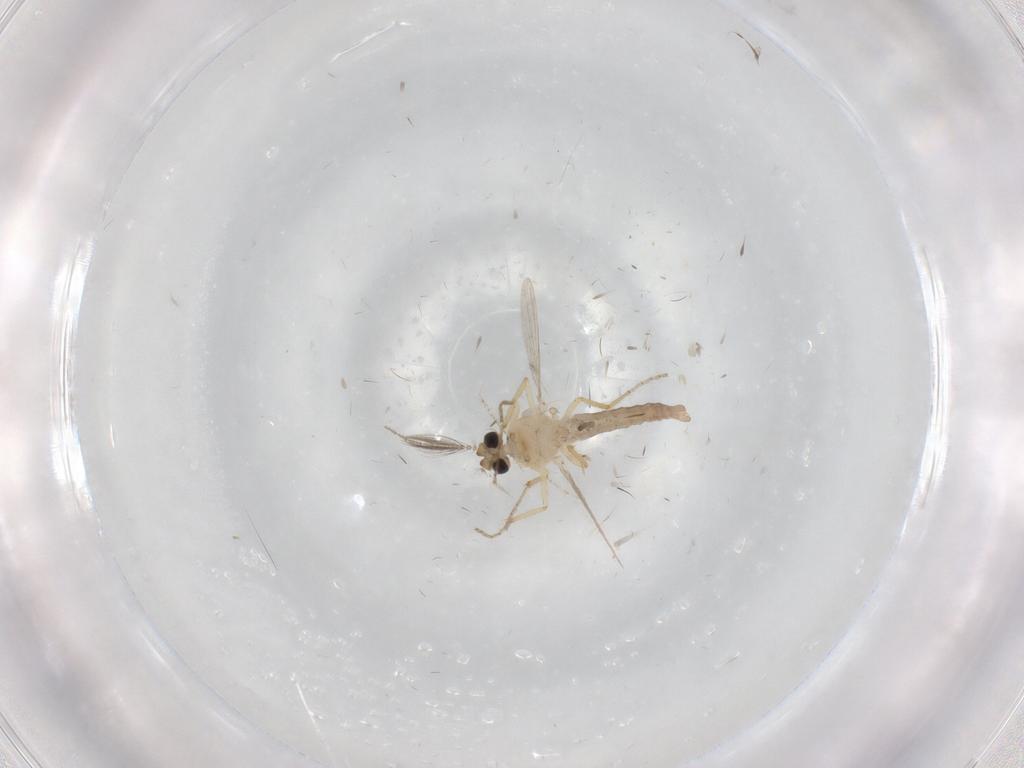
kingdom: Animalia
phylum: Arthropoda
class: Insecta
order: Diptera
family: Ceratopogonidae
